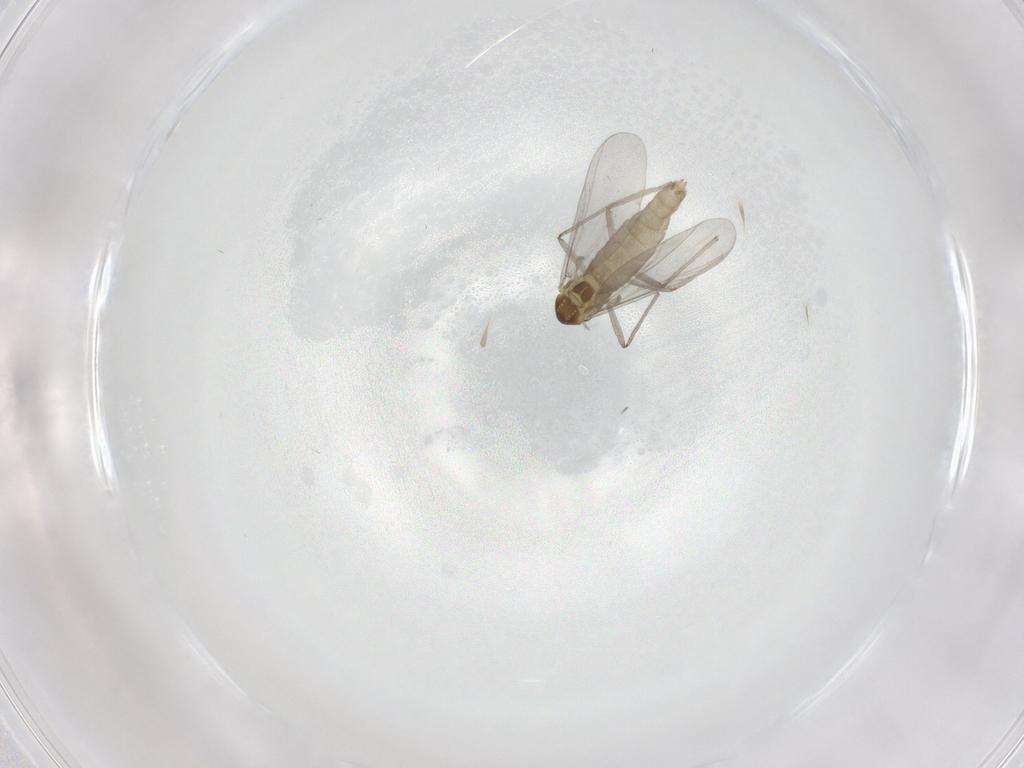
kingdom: Animalia
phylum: Arthropoda
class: Insecta
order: Diptera
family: Chironomidae
